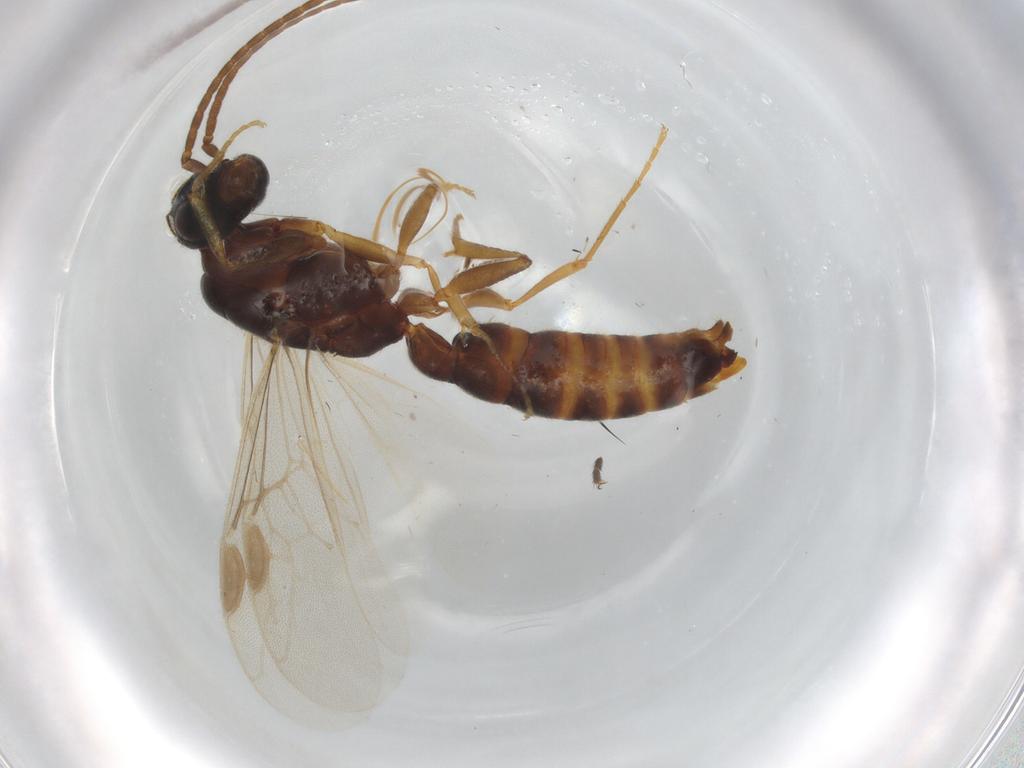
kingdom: Animalia
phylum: Arthropoda
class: Insecta
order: Hymenoptera
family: Formicidae
